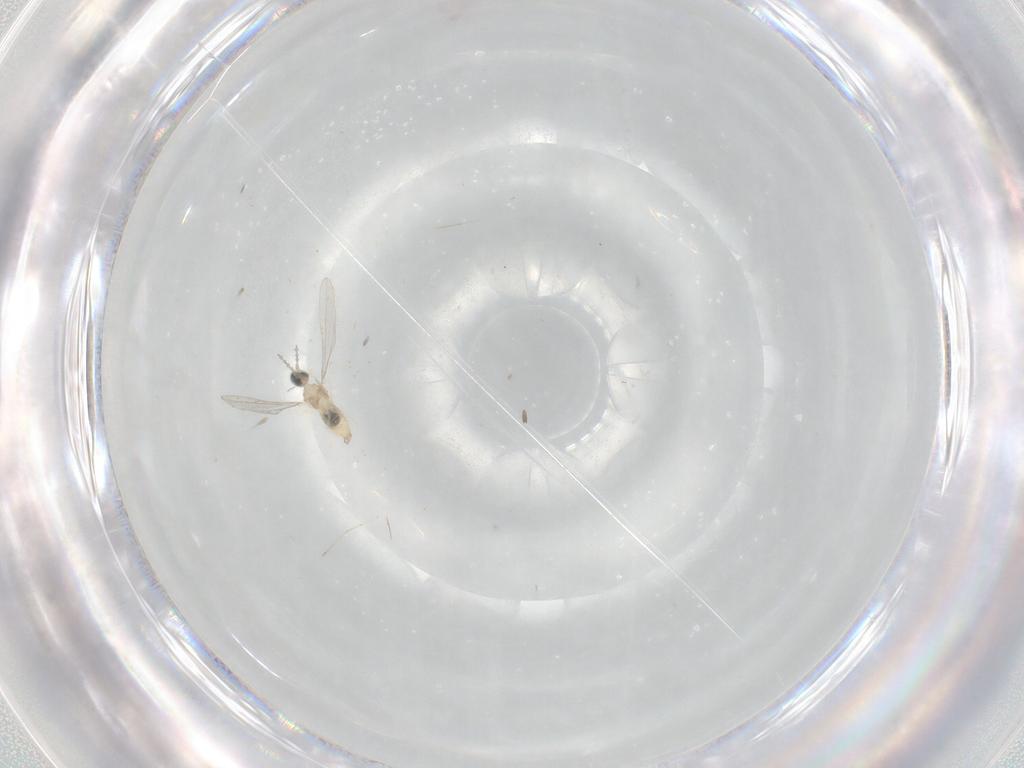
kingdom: Animalia
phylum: Arthropoda
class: Insecta
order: Diptera
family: Cecidomyiidae
